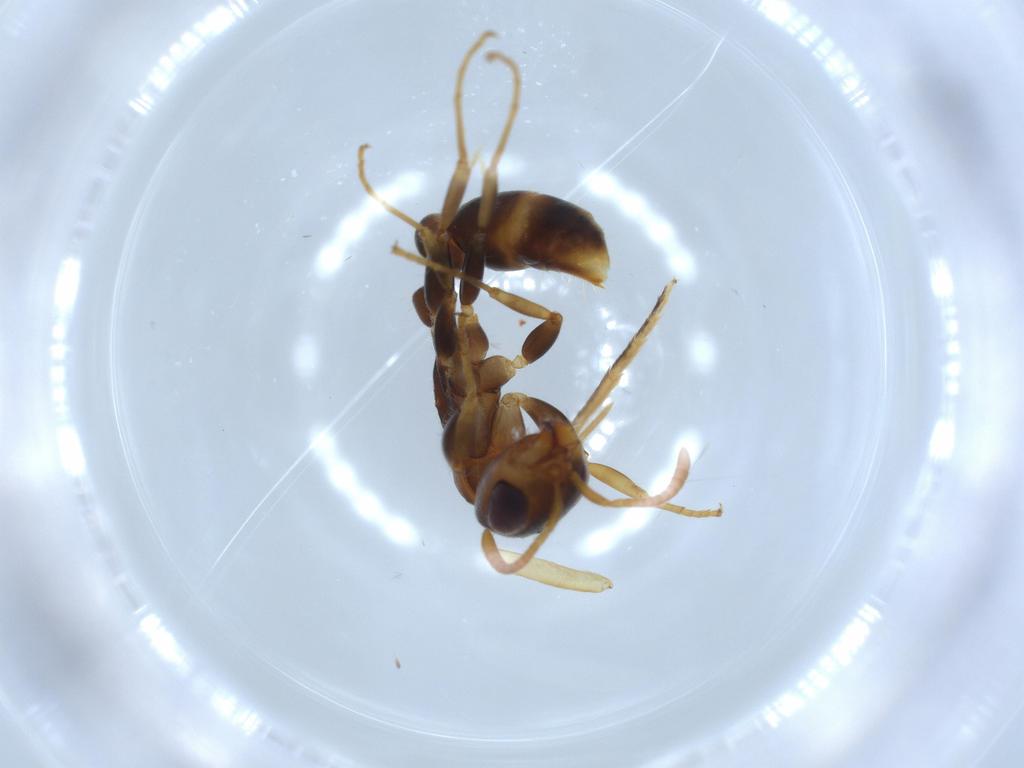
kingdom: Animalia
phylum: Arthropoda
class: Insecta
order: Hymenoptera
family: Formicidae
